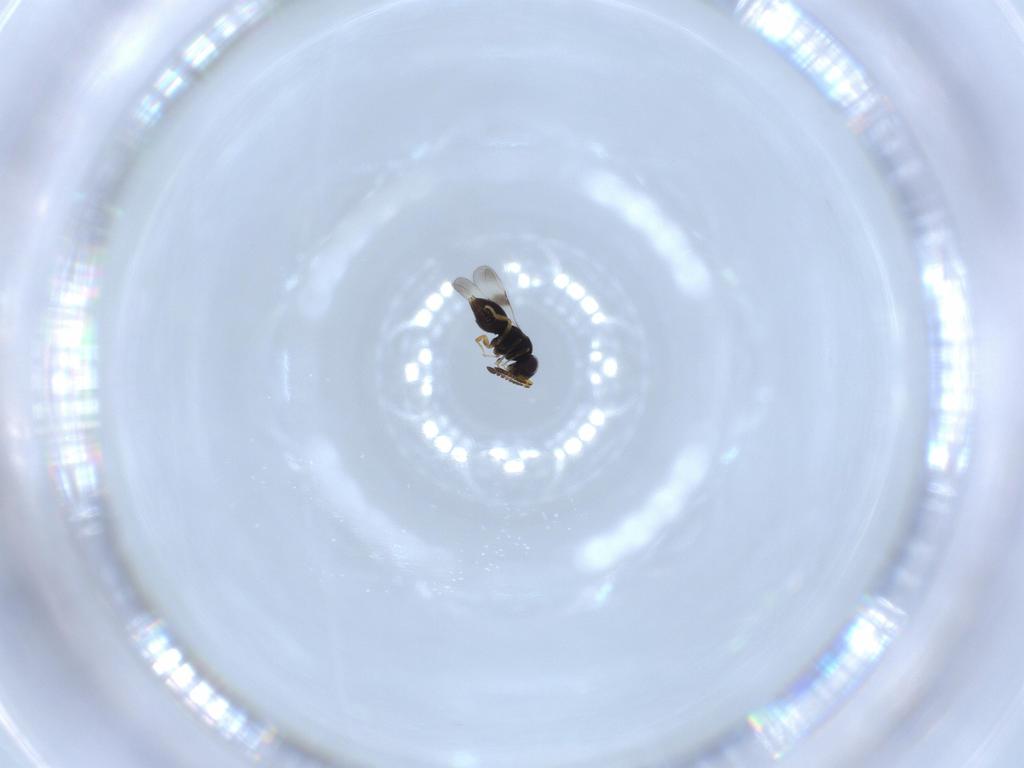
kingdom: Animalia
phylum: Arthropoda
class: Insecta
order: Hymenoptera
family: Ceraphronidae
